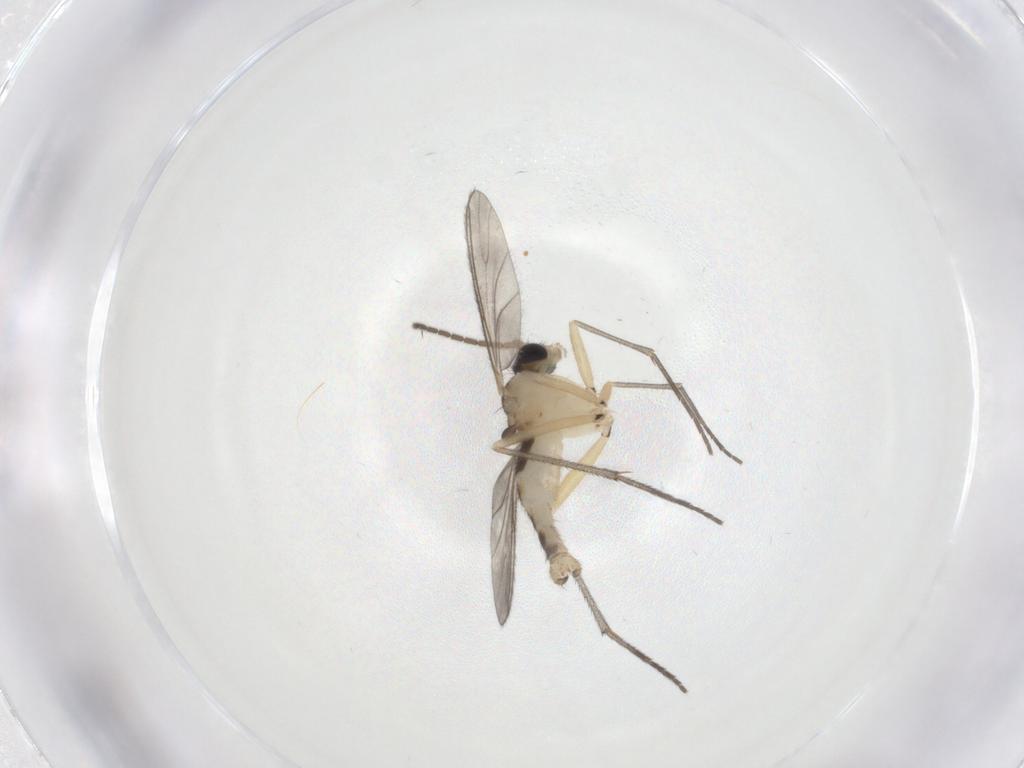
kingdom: Animalia
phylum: Arthropoda
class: Insecta
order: Diptera
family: Sciaridae
